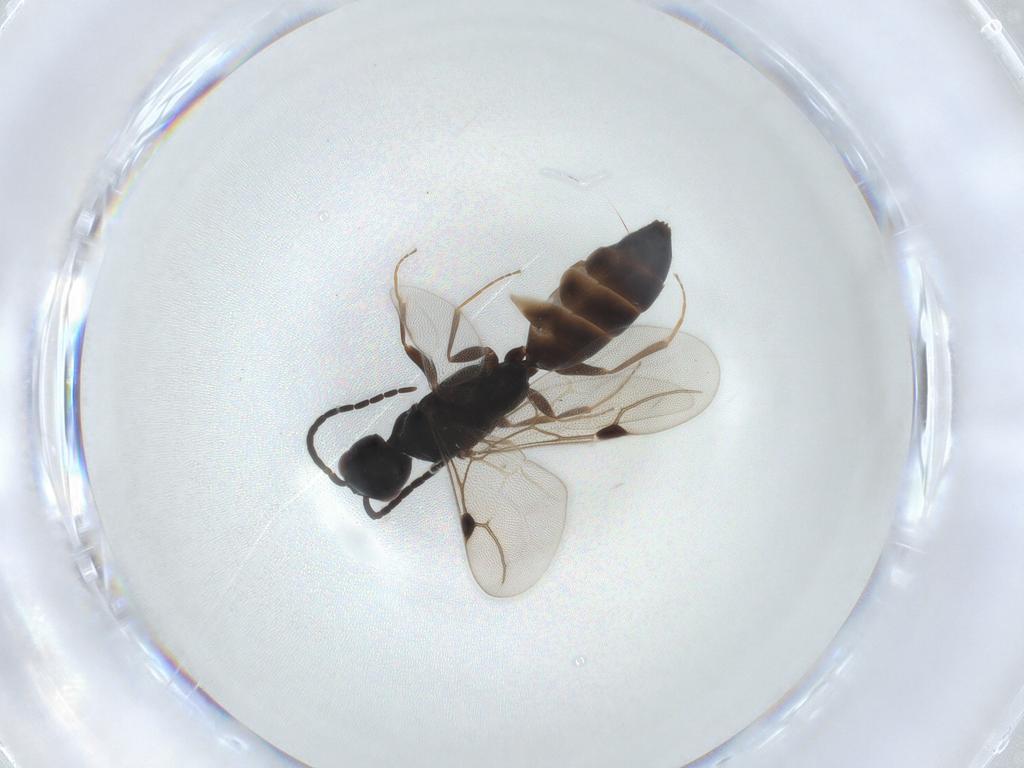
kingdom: Animalia
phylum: Arthropoda
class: Insecta
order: Hymenoptera
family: Bethylidae
